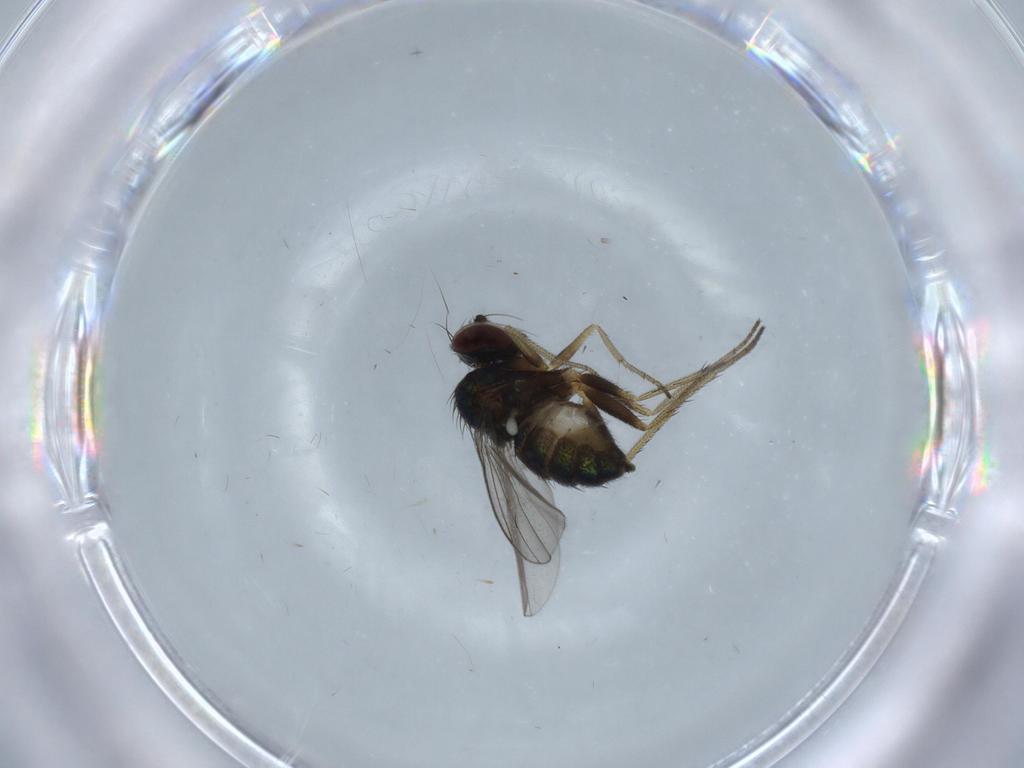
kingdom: Animalia
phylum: Arthropoda
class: Insecta
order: Diptera
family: Dolichopodidae
